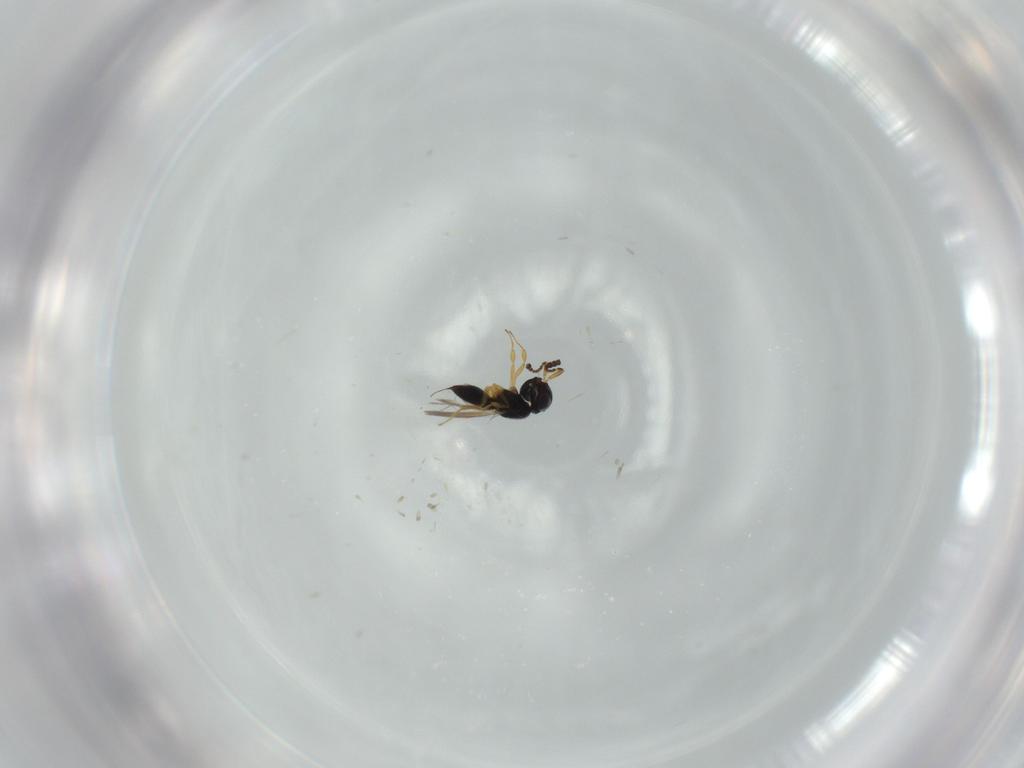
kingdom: Animalia
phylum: Arthropoda
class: Insecta
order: Hymenoptera
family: Scelionidae
